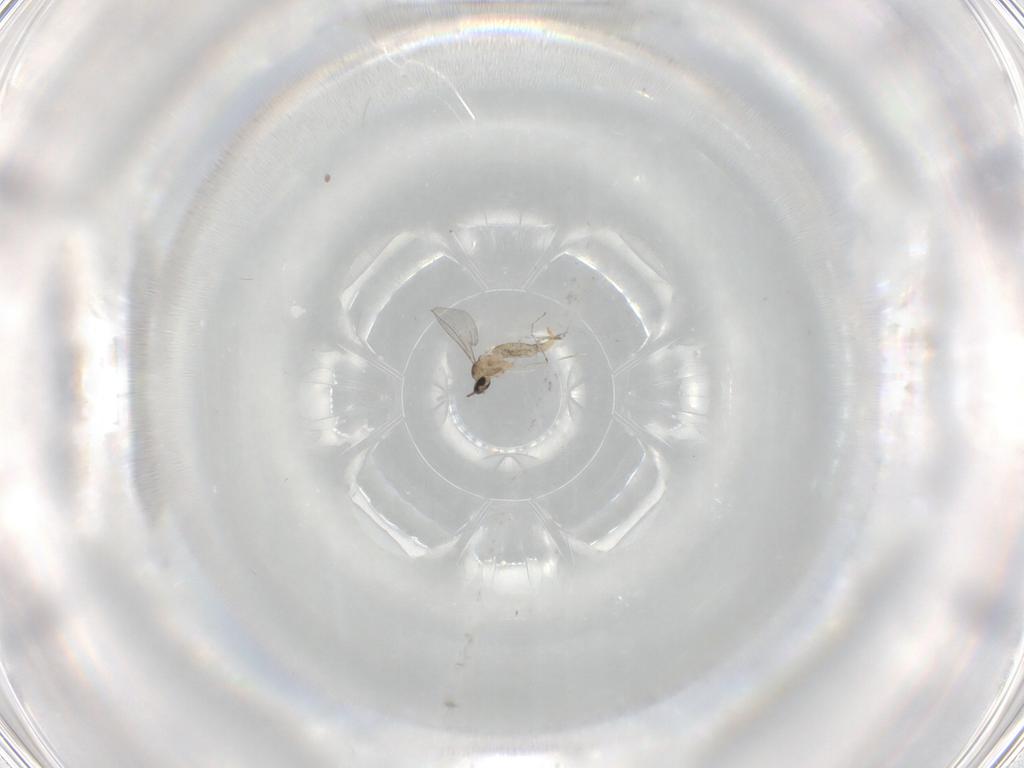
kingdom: Animalia
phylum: Arthropoda
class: Insecta
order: Diptera
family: Cecidomyiidae
